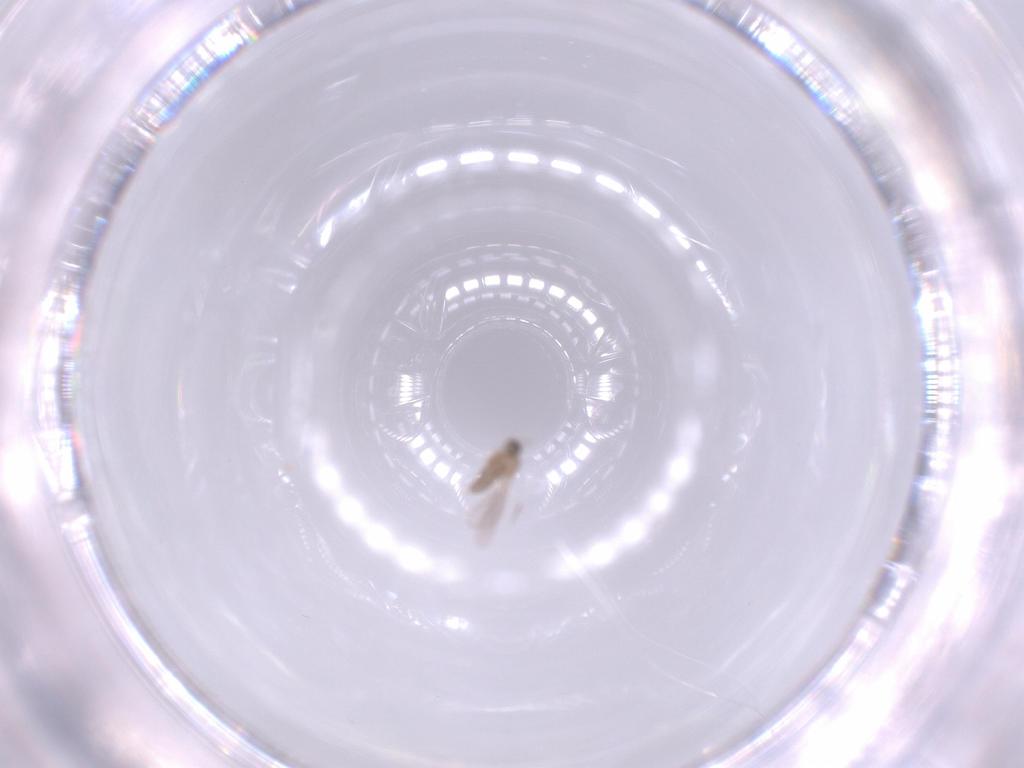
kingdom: Animalia
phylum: Arthropoda
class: Insecta
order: Diptera
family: Cecidomyiidae
